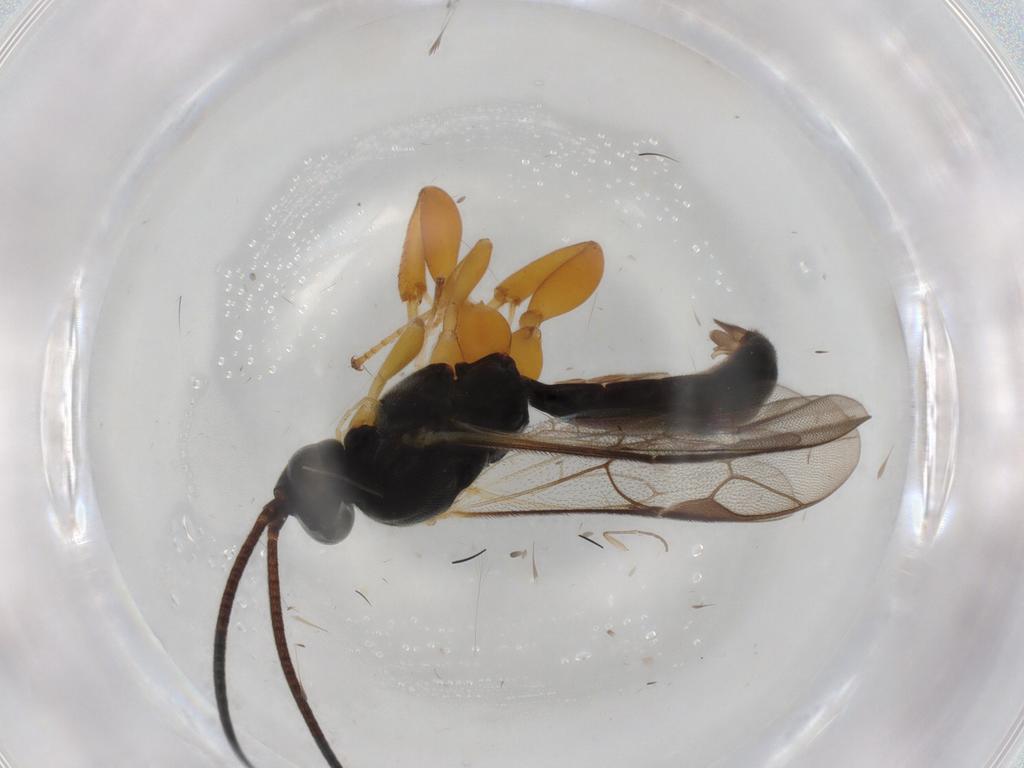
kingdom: Animalia
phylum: Arthropoda
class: Insecta
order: Hymenoptera
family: Ichneumonidae
